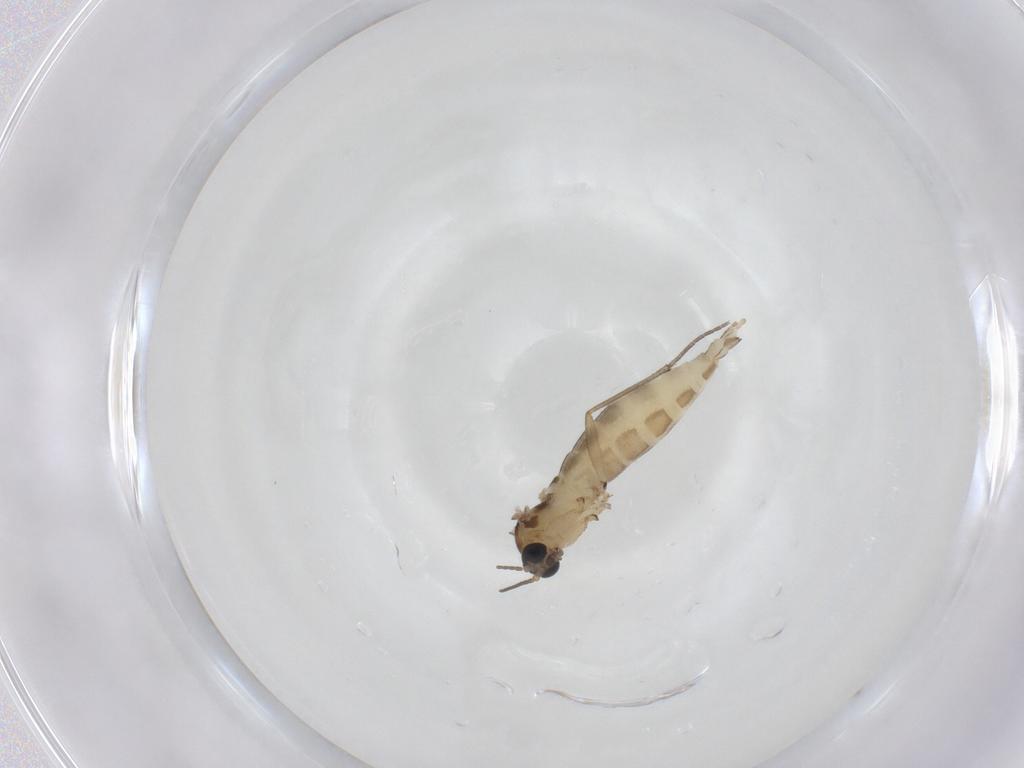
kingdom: Animalia
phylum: Arthropoda
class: Insecta
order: Diptera
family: Sciaridae
